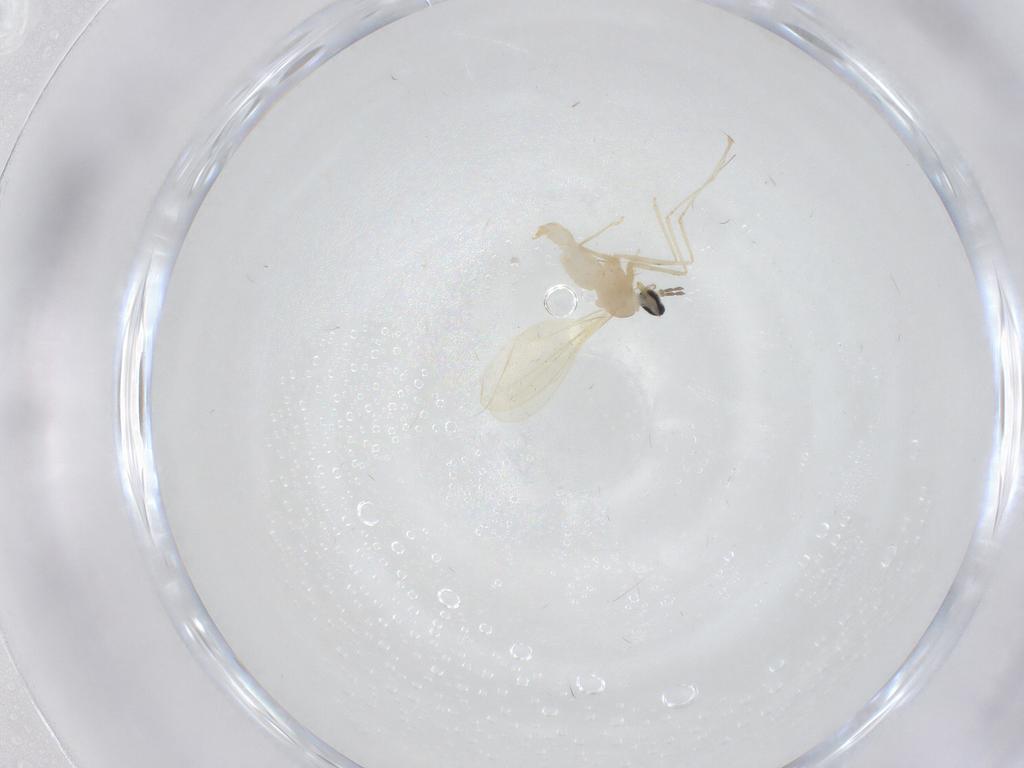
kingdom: Animalia
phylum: Arthropoda
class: Insecta
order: Diptera
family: Cecidomyiidae
